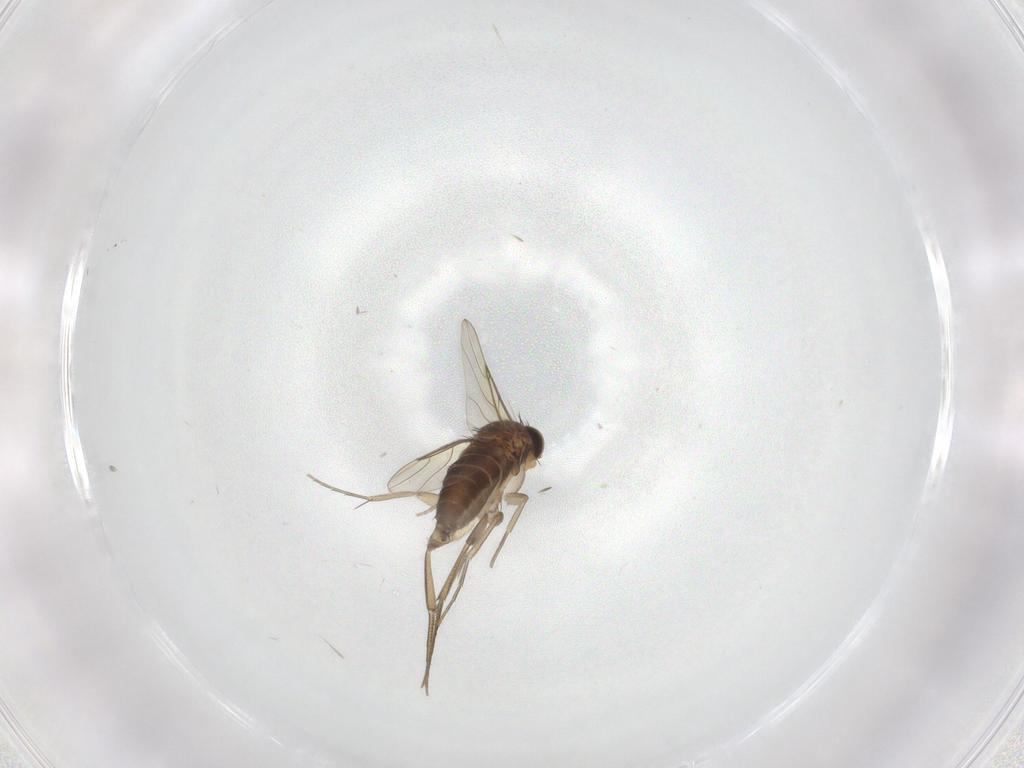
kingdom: Animalia
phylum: Arthropoda
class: Insecta
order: Diptera
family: Phoridae
